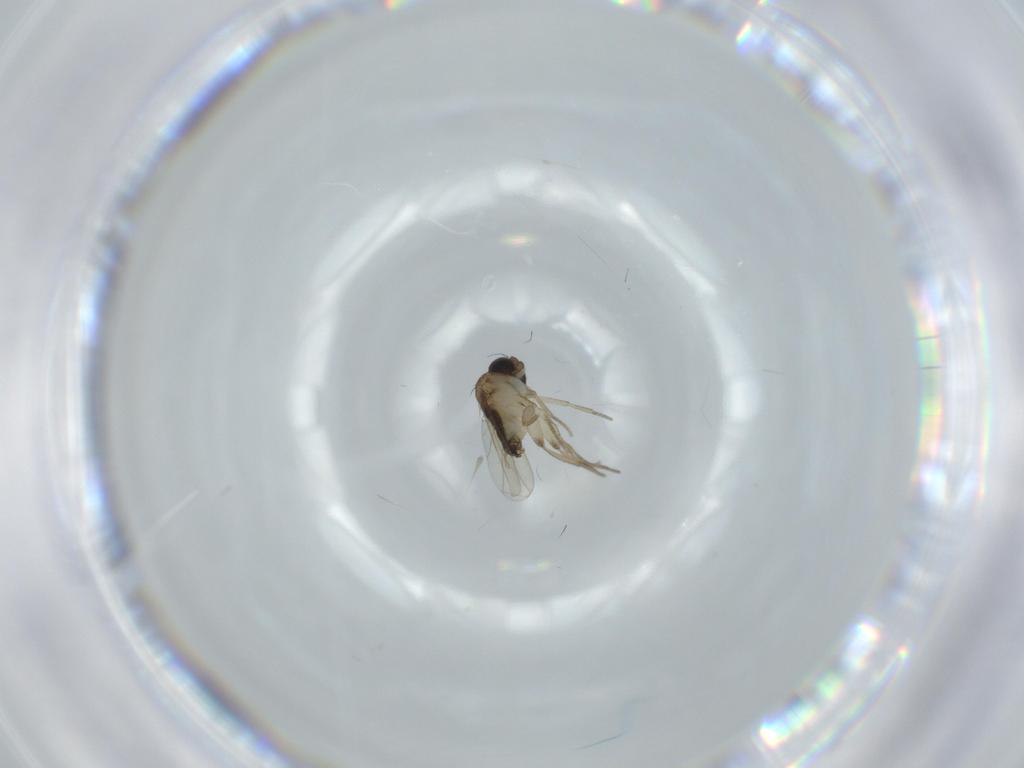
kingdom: Animalia
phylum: Arthropoda
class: Insecta
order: Diptera
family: Phoridae
